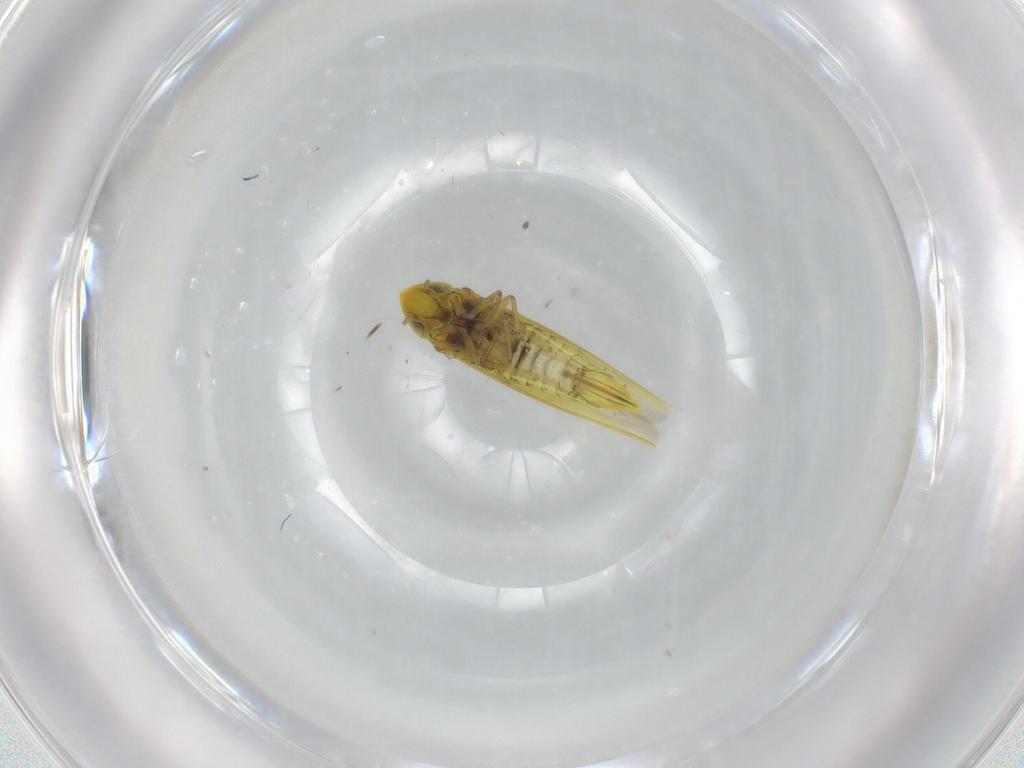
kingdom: Animalia
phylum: Arthropoda
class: Insecta
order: Hemiptera
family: Cicadellidae
